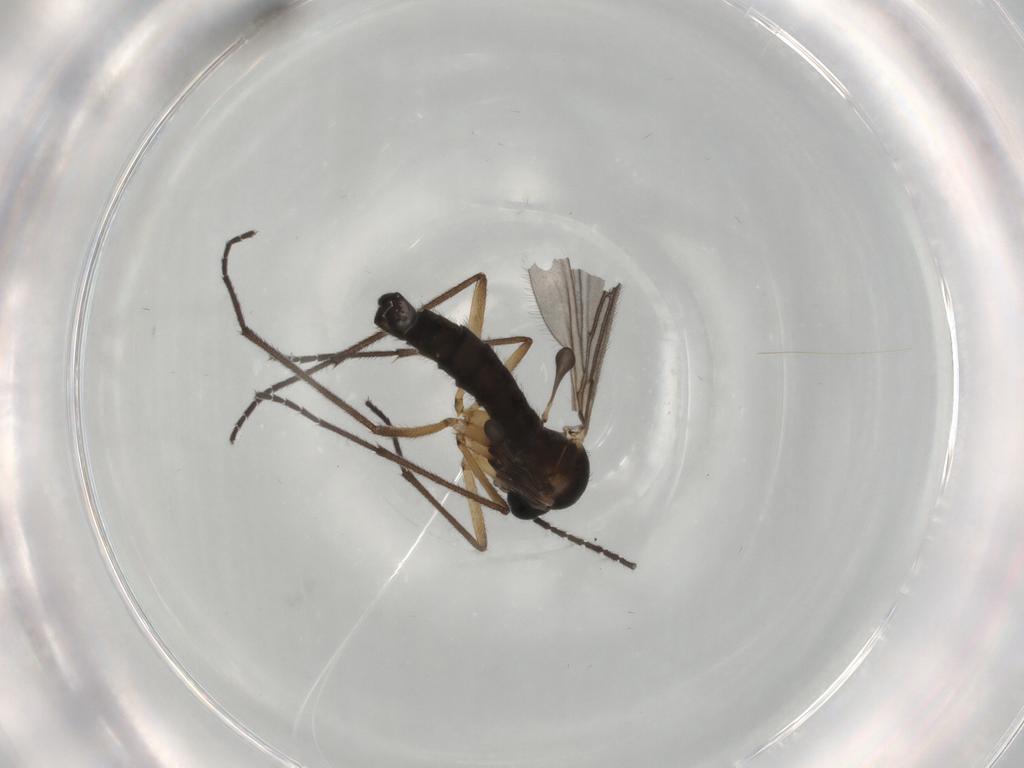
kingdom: Animalia
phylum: Arthropoda
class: Insecta
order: Diptera
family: Sciaridae
